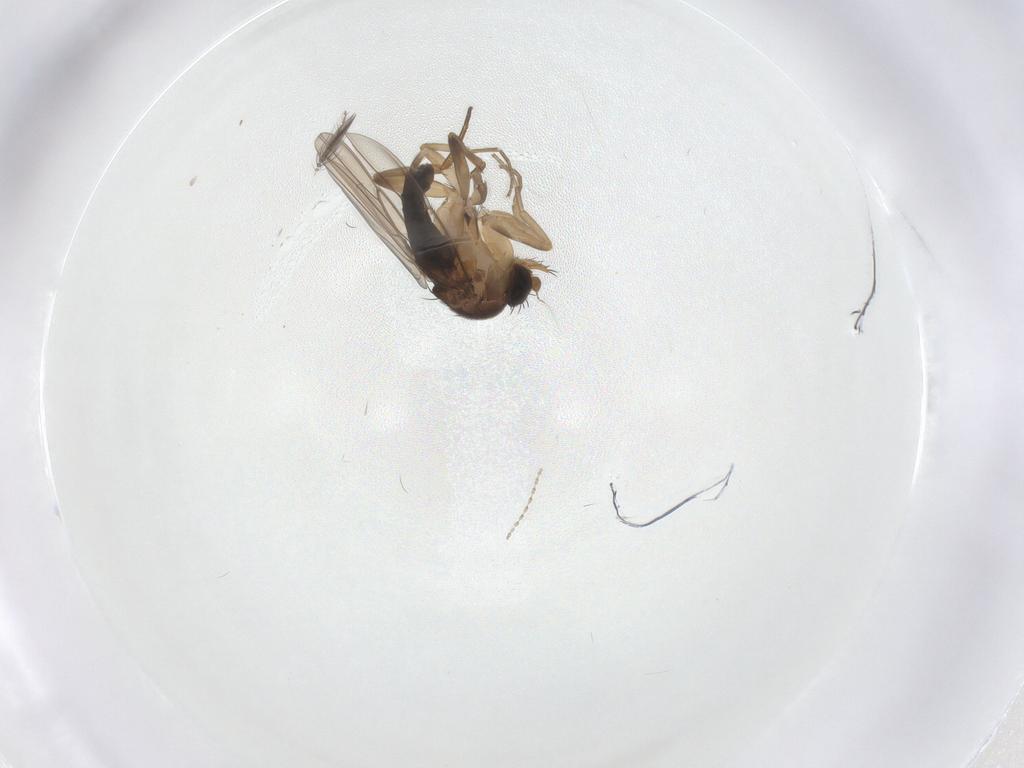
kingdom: Animalia
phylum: Arthropoda
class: Insecta
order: Diptera
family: Phoridae
